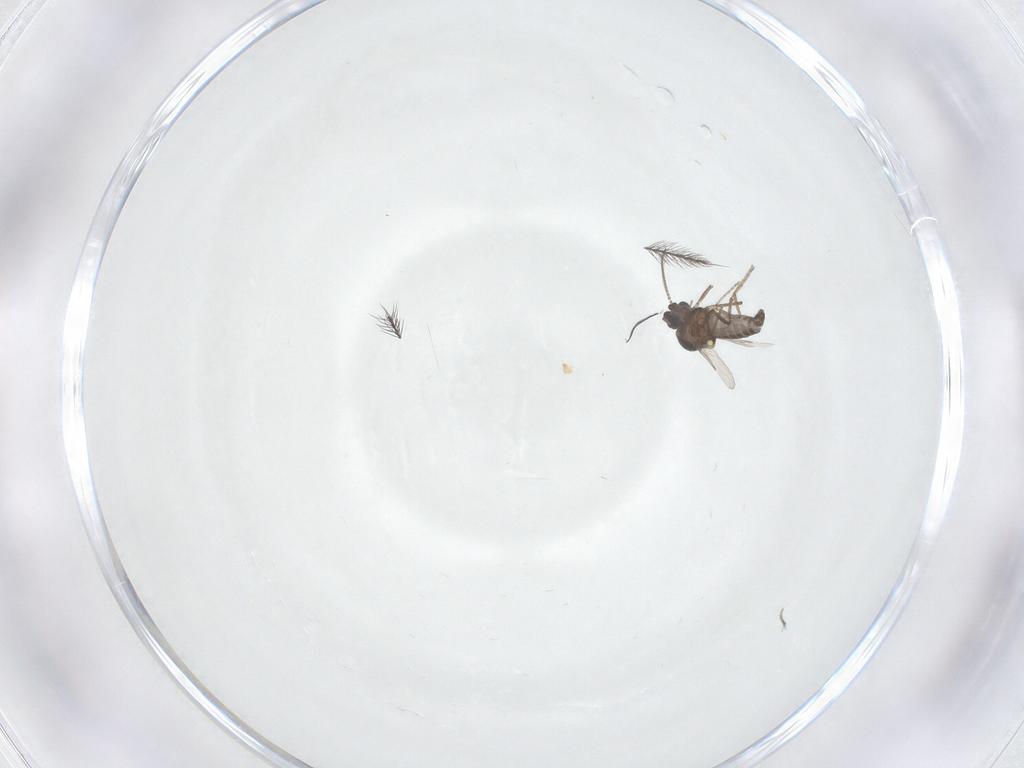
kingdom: Animalia
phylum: Arthropoda
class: Insecta
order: Diptera
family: Ceratopogonidae
